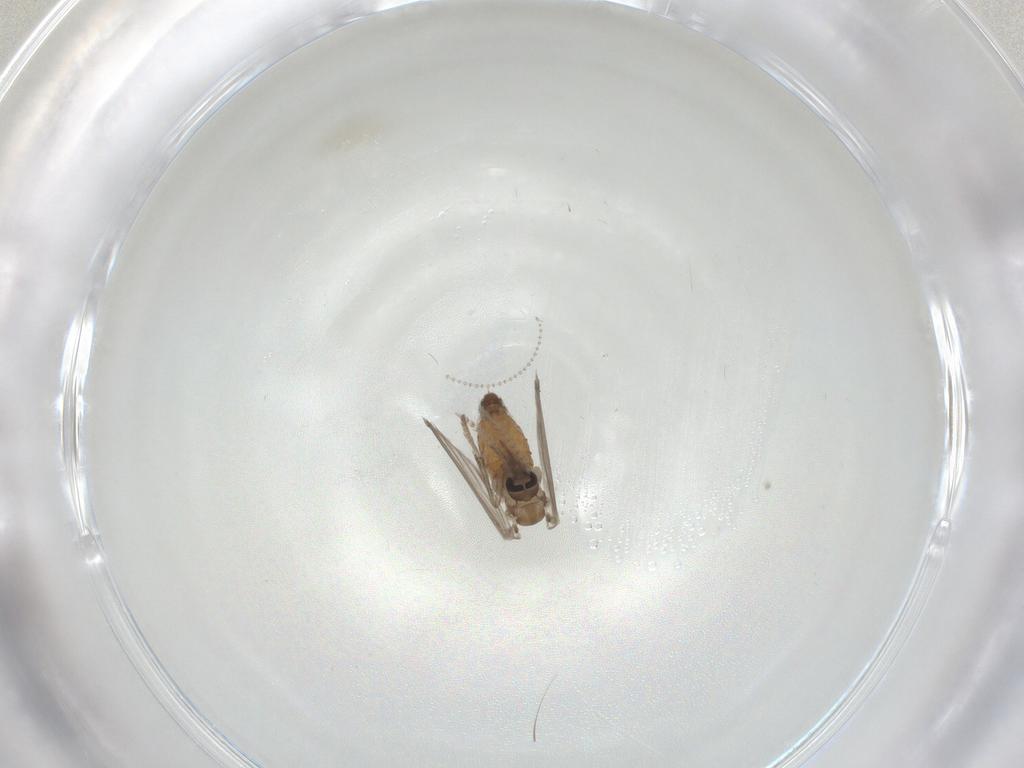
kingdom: Animalia
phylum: Arthropoda
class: Insecta
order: Diptera
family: Psychodidae
